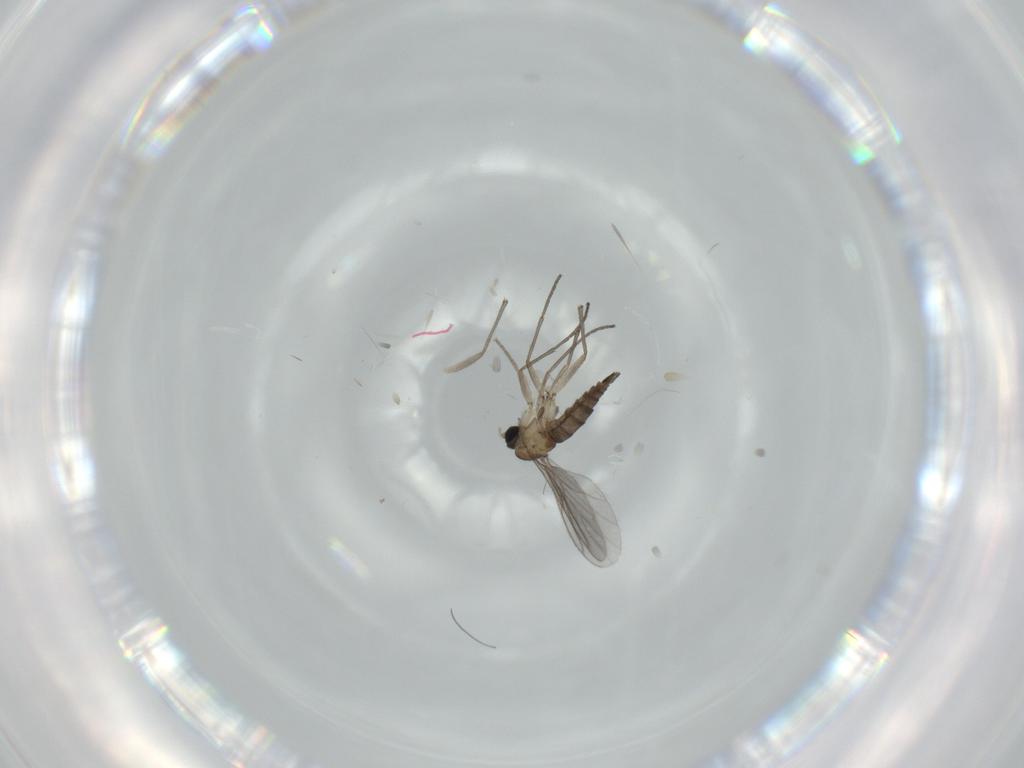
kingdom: Animalia
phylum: Arthropoda
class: Insecta
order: Diptera
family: Sciaridae
